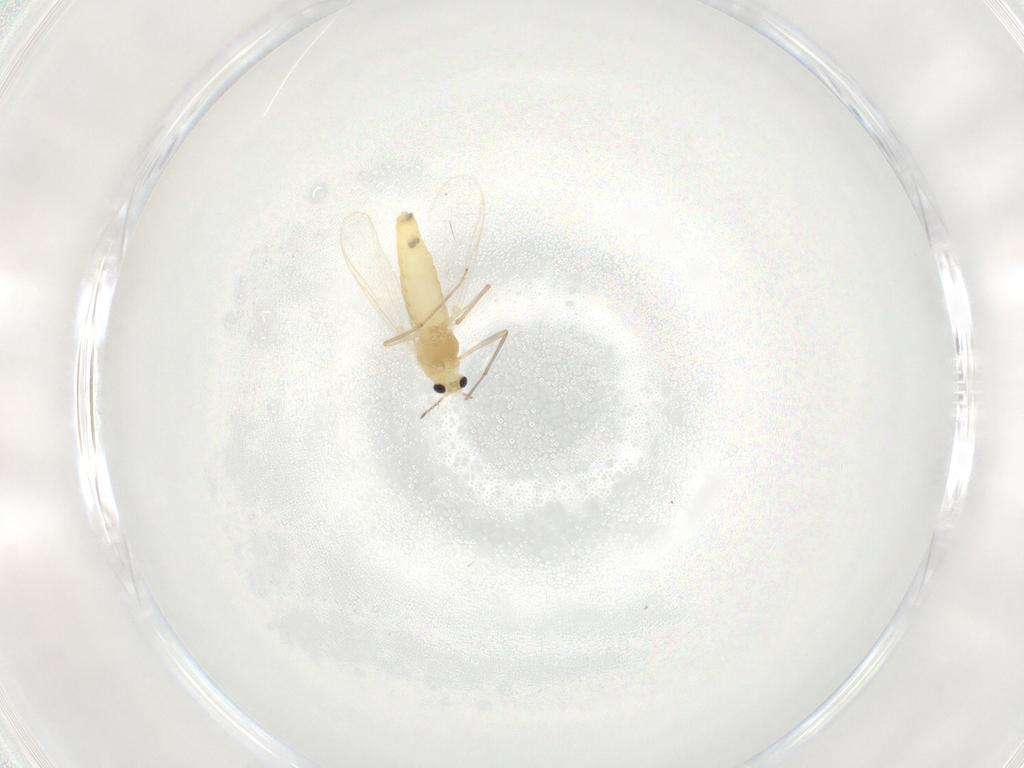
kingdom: Animalia
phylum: Arthropoda
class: Insecta
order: Diptera
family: Chironomidae
